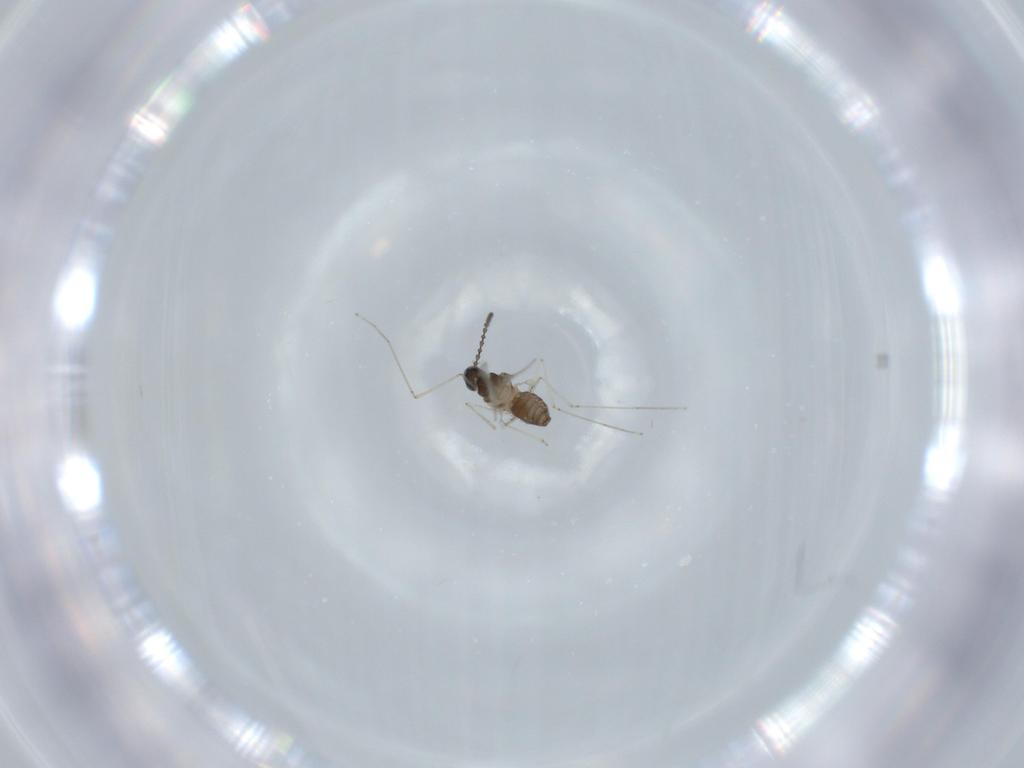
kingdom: Animalia
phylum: Arthropoda
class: Insecta
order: Diptera
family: Cecidomyiidae
